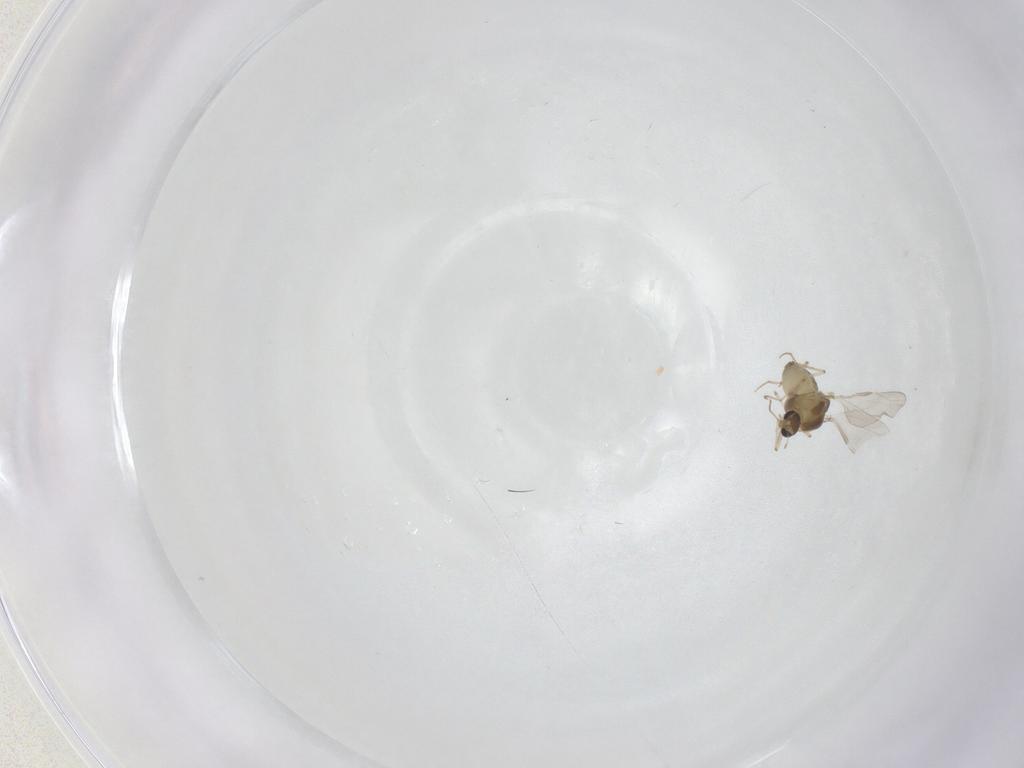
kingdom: Animalia
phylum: Arthropoda
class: Insecta
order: Diptera
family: Chironomidae
